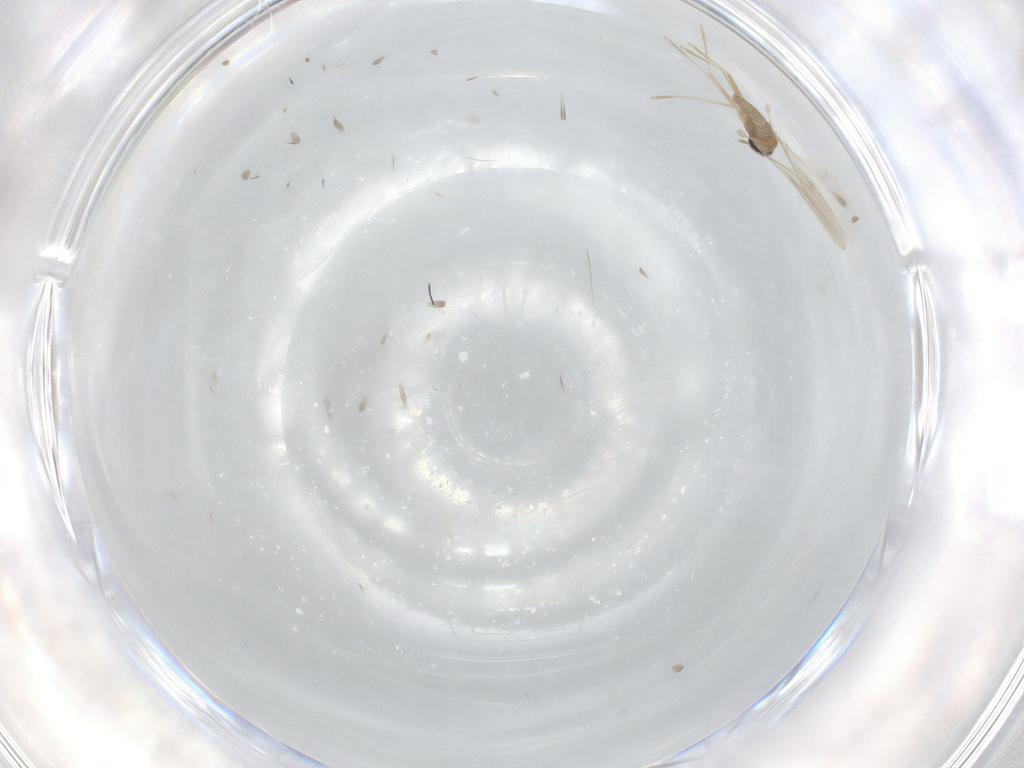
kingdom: Animalia
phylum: Arthropoda
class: Insecta
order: Diptera
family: Cecidomyiidae
